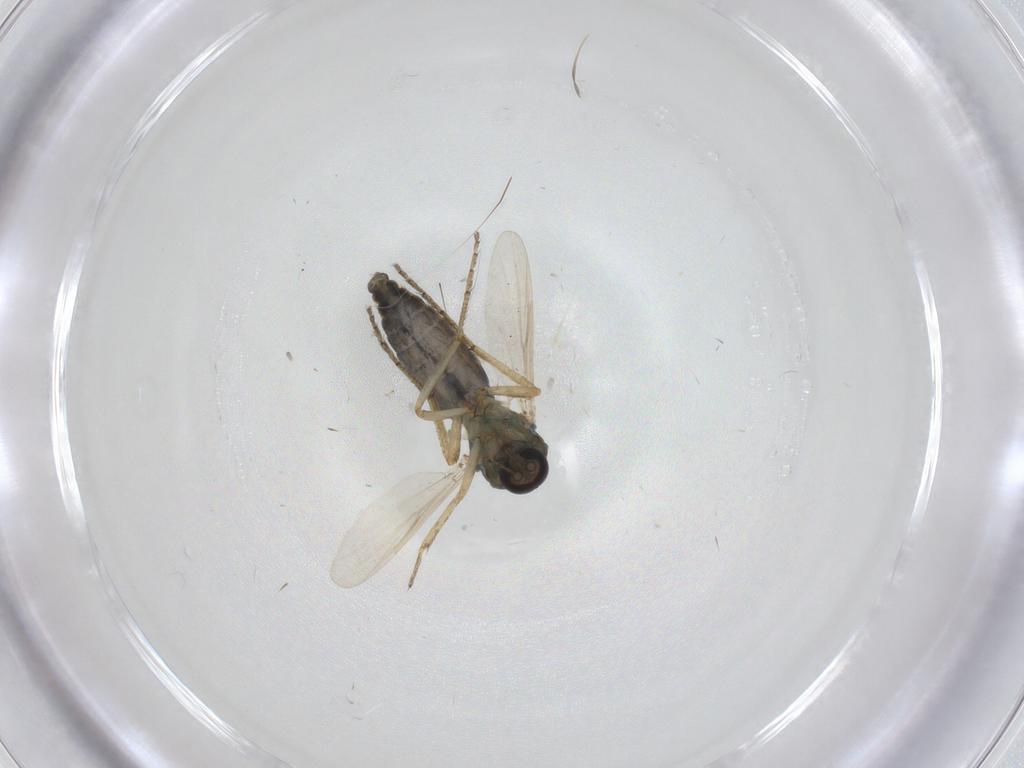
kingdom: Animalia
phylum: Arthropoda
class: Insecta
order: Diptera
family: Ceratopogonidae
